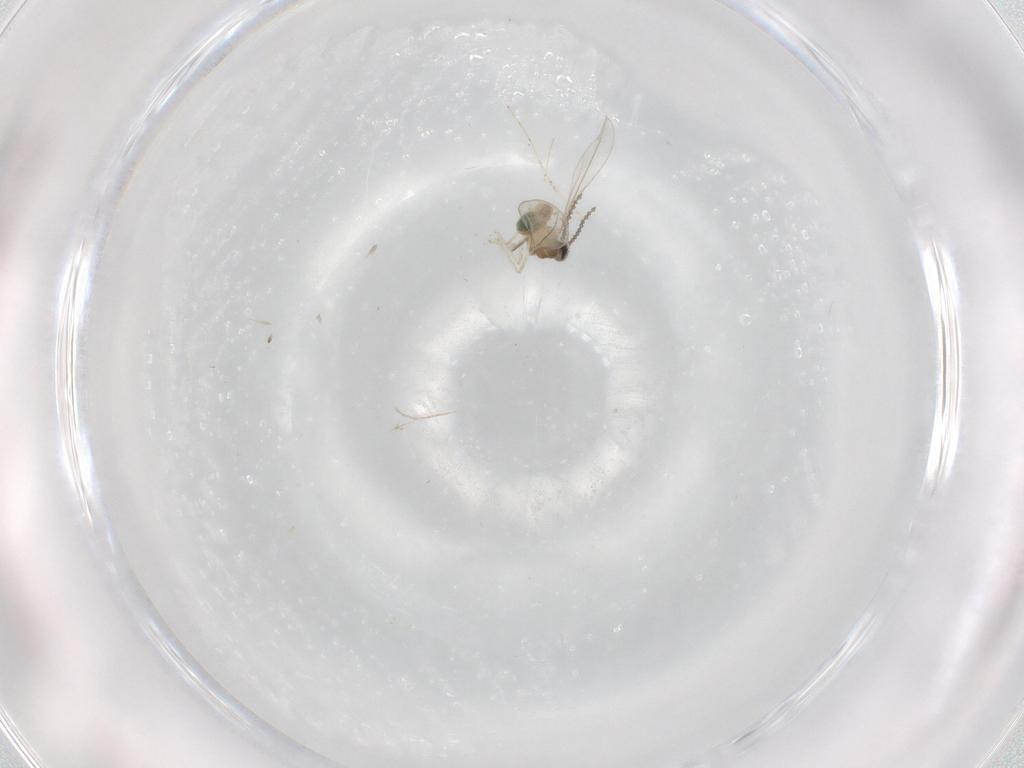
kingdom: Animalia
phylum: Arthropoda
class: Insecta
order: Diptera
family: Cecidomyiidae
